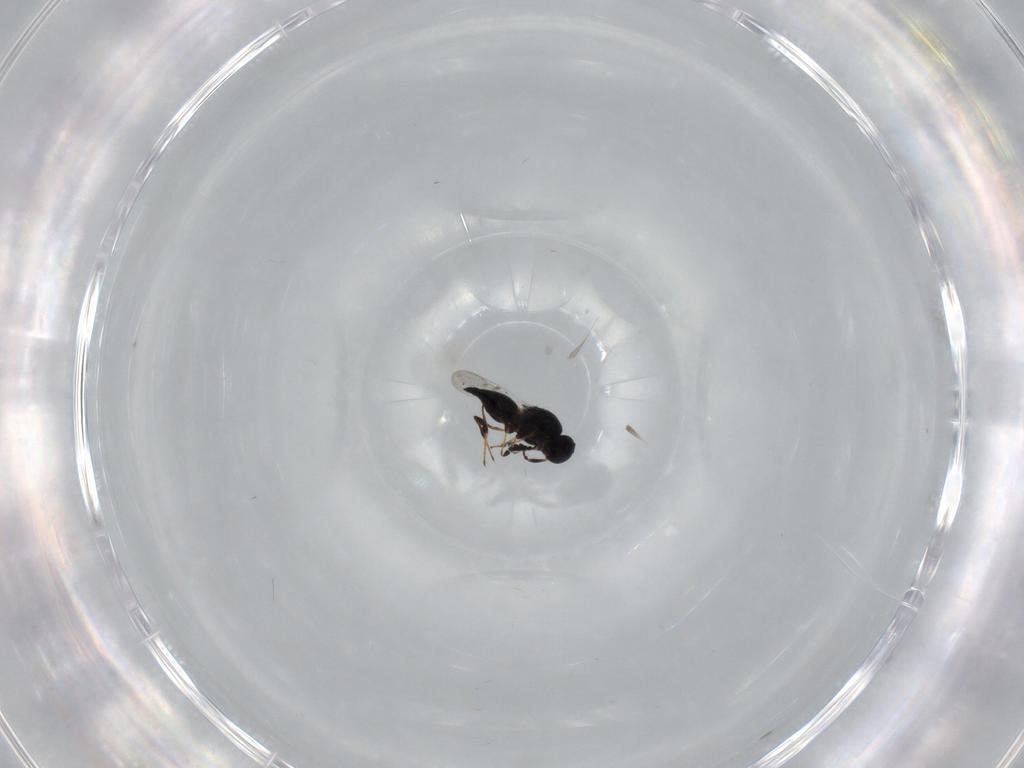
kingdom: Animalia
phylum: Arthropoda
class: Insecta
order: Hymenoptera
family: Platygastridae
